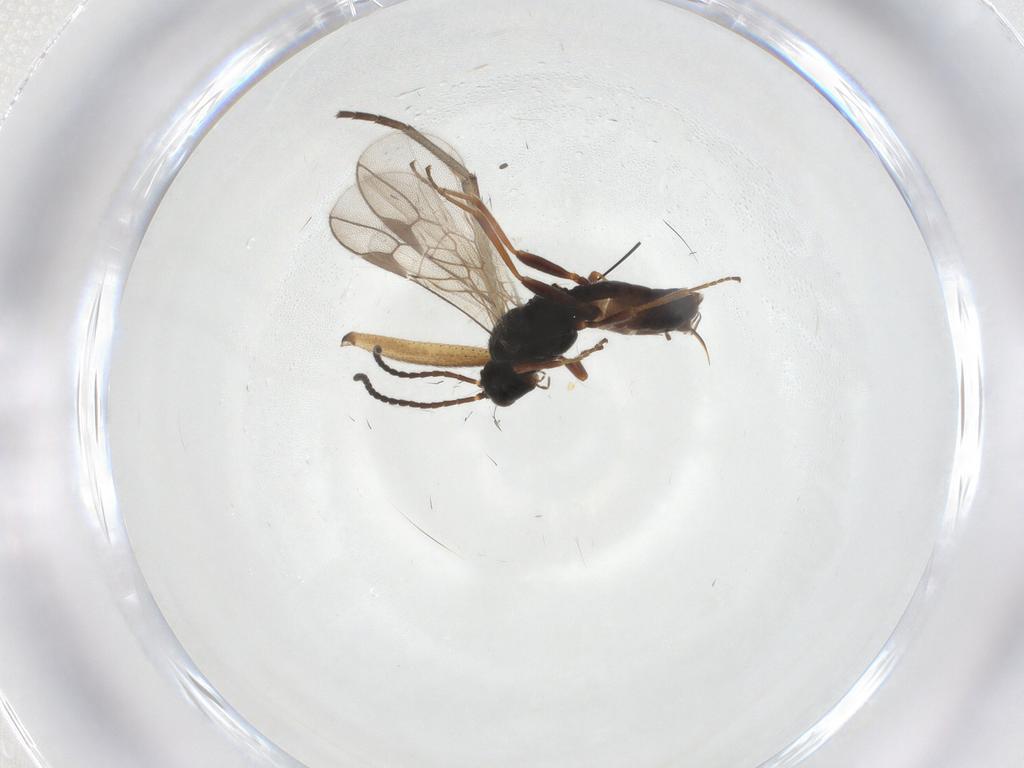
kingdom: Animalia
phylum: Arthropoda
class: Insecta
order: Hymenoptera
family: Braconidae
